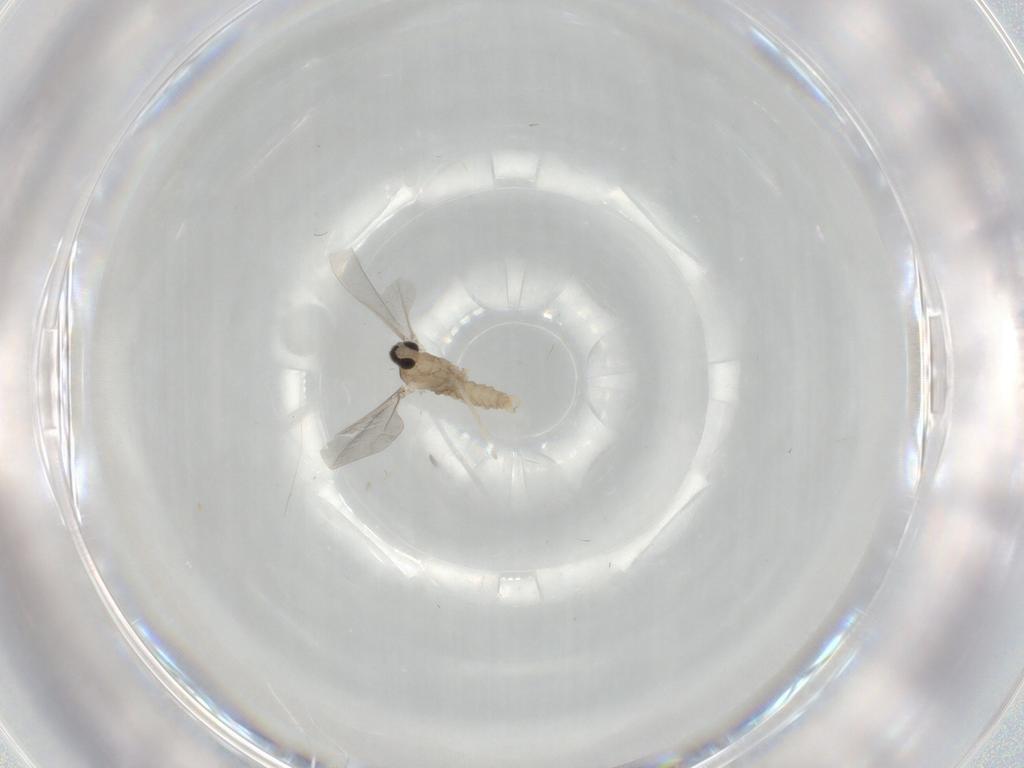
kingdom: Animalia
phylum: Arthropoda
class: Insecta
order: Diptera
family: Cecidomyiidae
